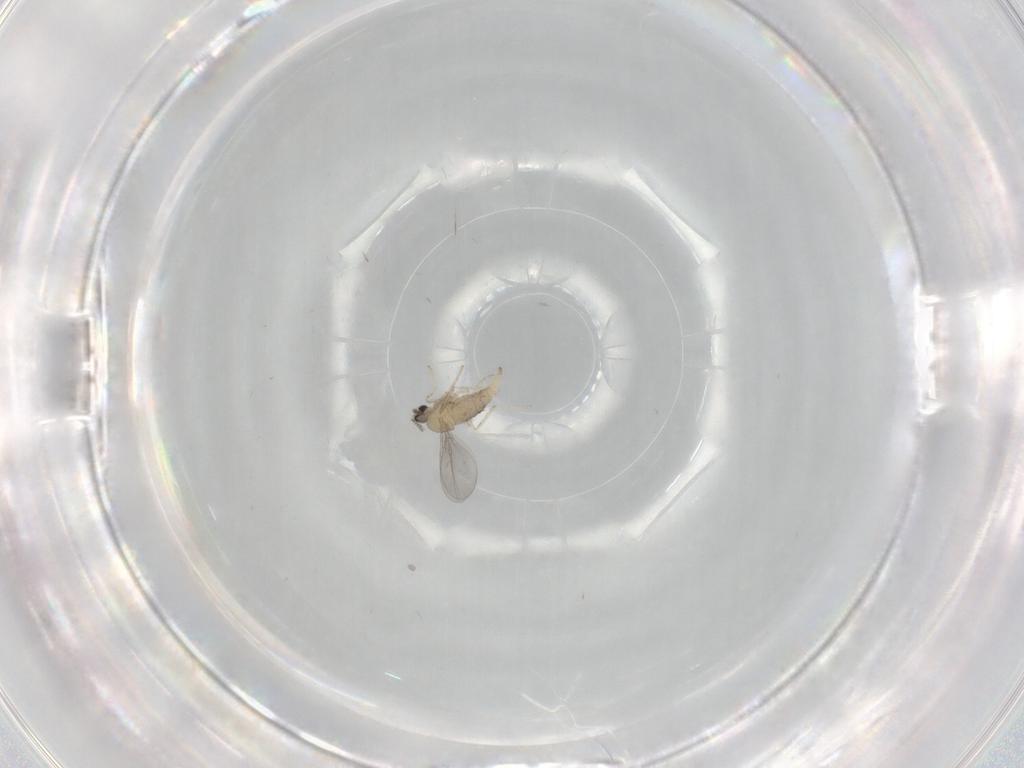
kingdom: Animalia
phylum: Arthropoda
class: Insecta
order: Diptera
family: Cecidomyiidae
